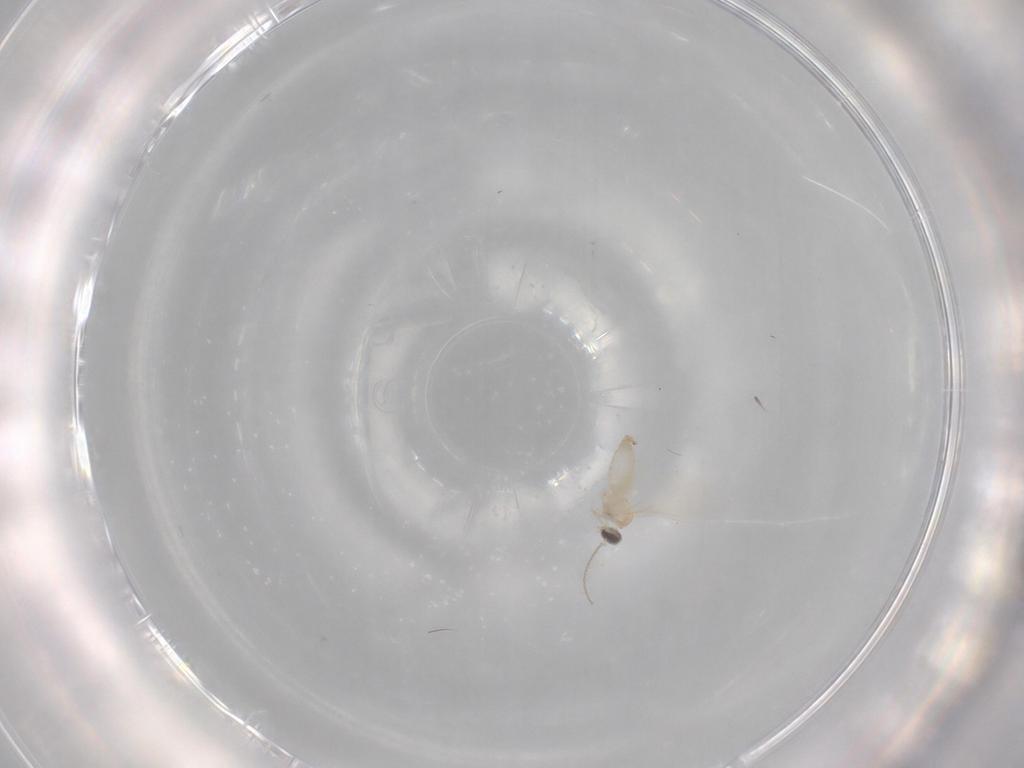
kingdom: Animalia
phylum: Arthropoda
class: Insecta
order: Diptera
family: Cecidomyiidae
